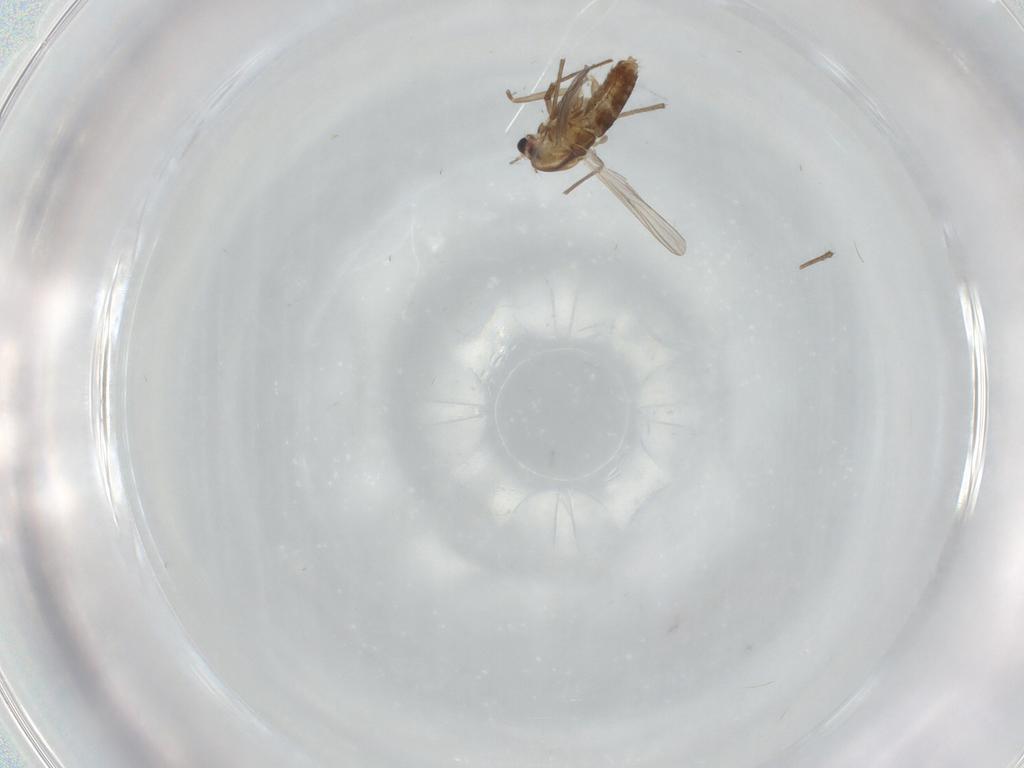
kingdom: Animalia
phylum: Arthropoda
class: Insecta
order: Diptera
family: Chironomidae
